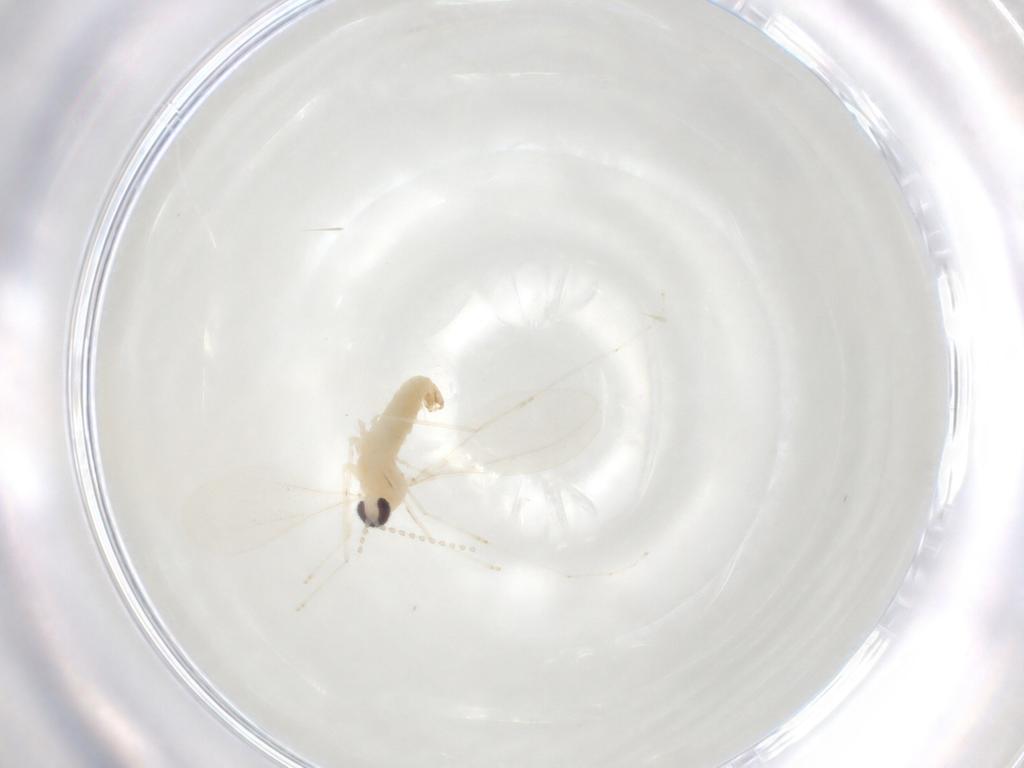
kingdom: Animalia
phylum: Arthropoda
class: Insecta
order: Diptera
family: Cecidomyiidae
